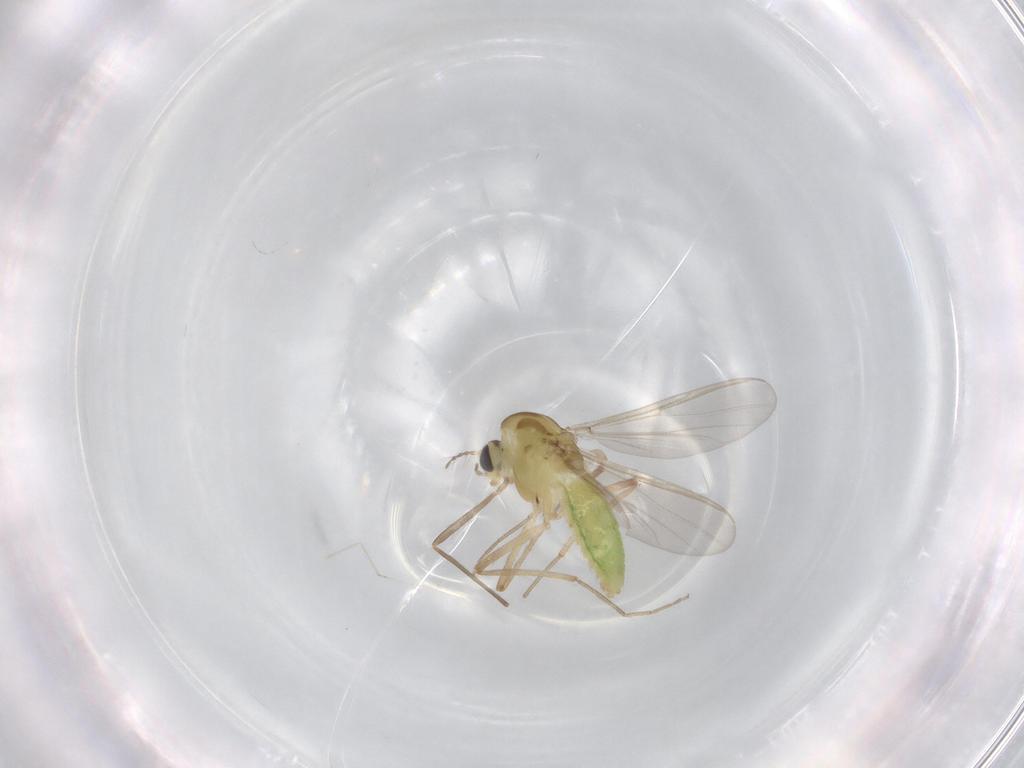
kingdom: Animalia
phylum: Arthropoda
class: Insecta
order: Diptera
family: Chironomidae
